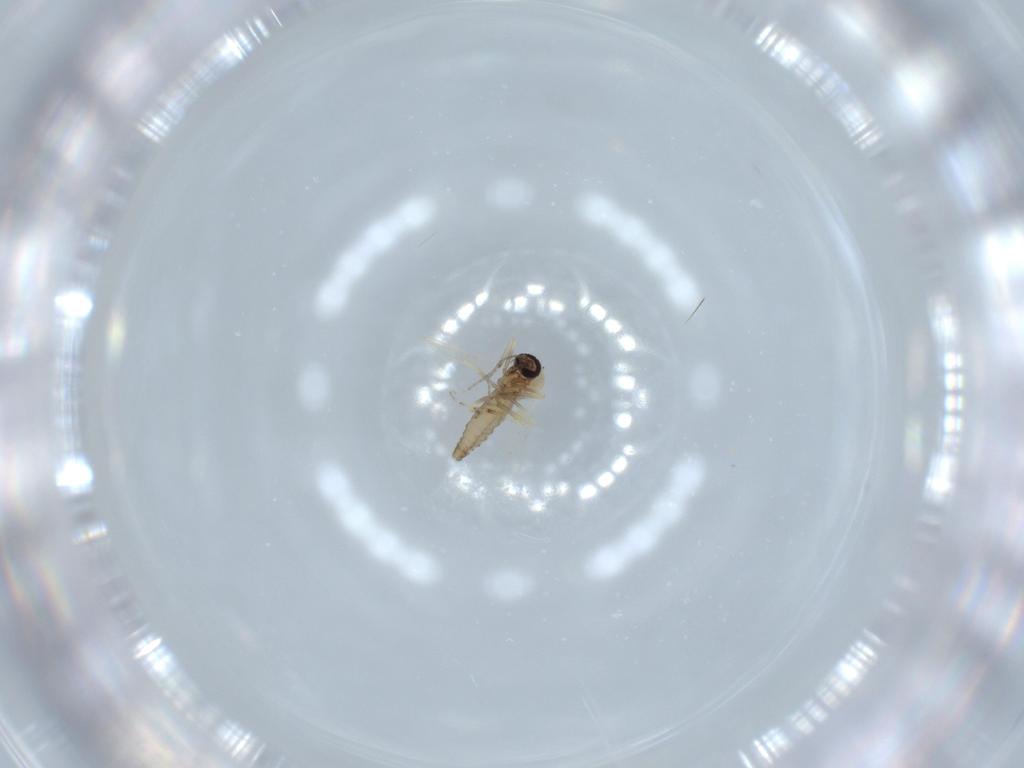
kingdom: Animalia
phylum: Arthropoda
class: Insecta
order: Diptera
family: Ceratopogonidae
